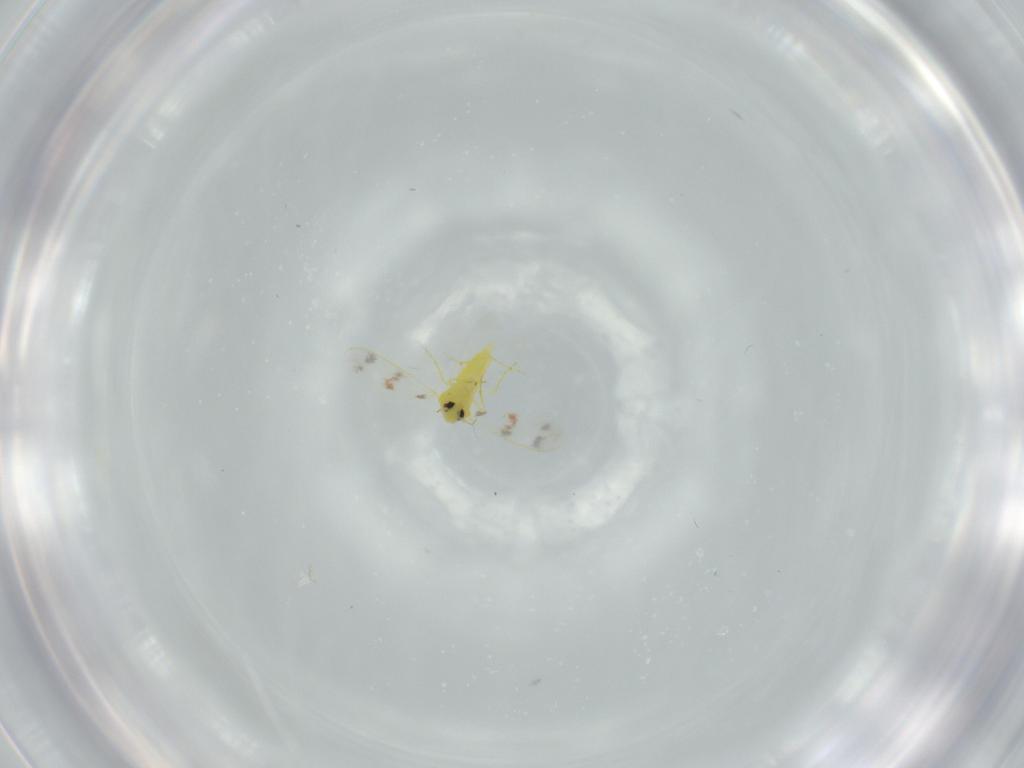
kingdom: Animalia
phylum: Arthropoda
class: Insecta
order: Hemiptera
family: Aleyrodidae
